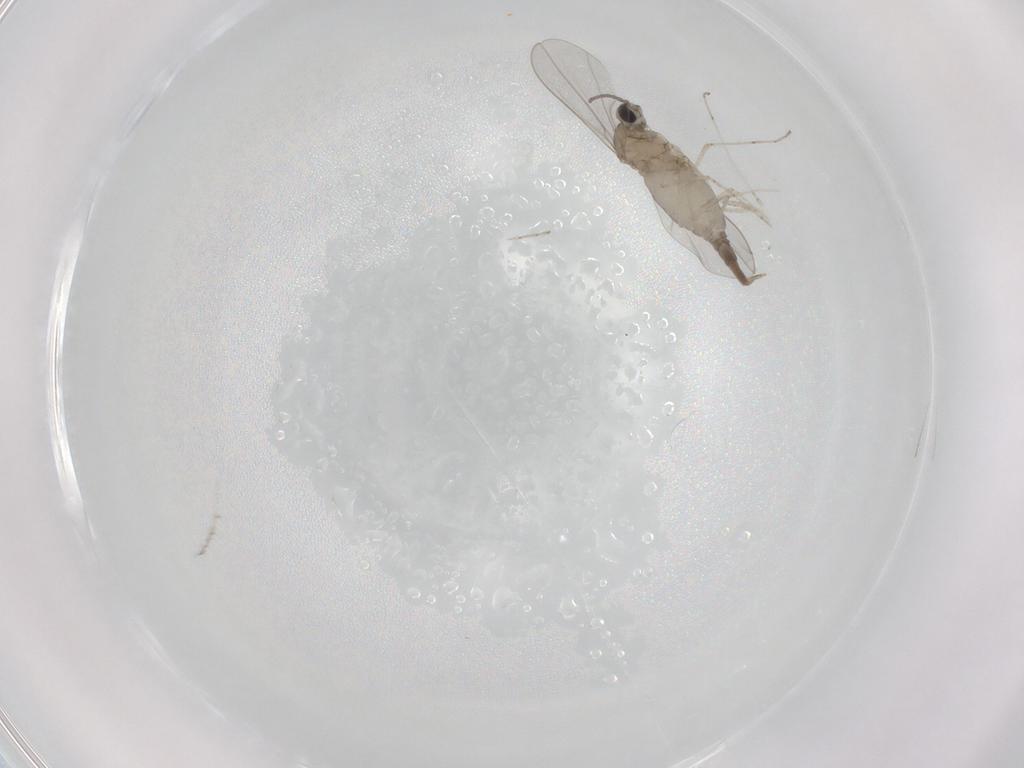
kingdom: Animalia
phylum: Arthropoda
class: Insecta
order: Diptera
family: Cecidomyiidae
